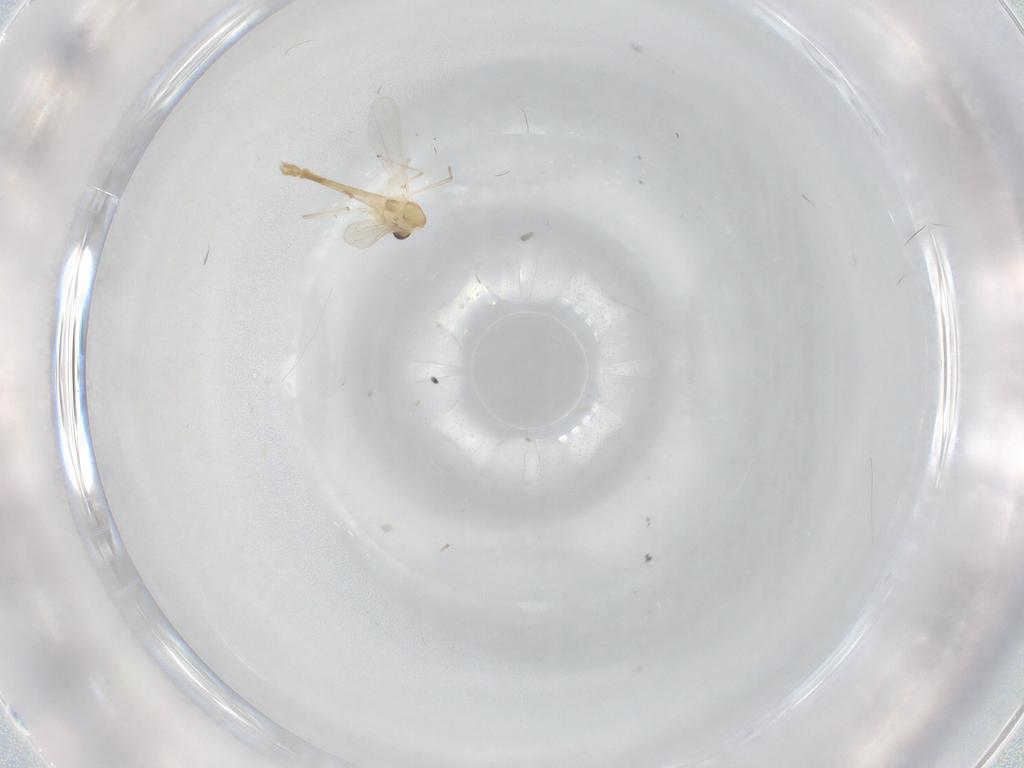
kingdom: Animalia
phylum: Arthropoda
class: Insecta
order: Diptera
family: Chironomidae
